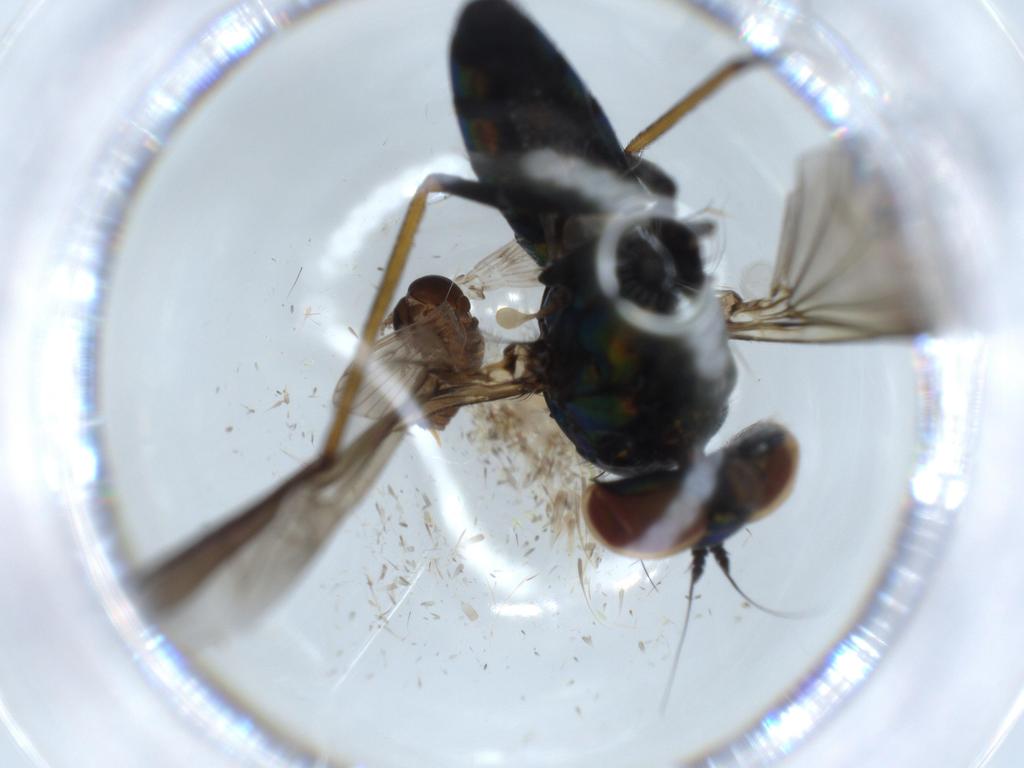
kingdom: Animalia
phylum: Arthropoda
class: Insecta
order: Diptera
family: Dolichopodidae
